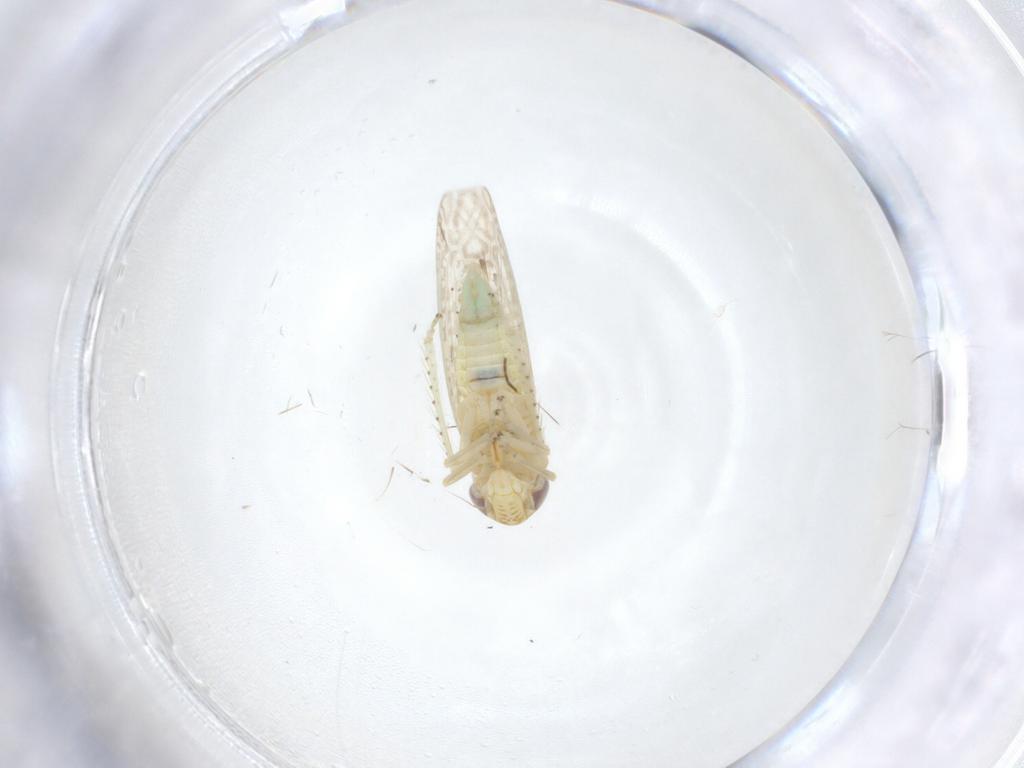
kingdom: Animalia
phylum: Arthropoda
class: Insecta
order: Hemiptera
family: Cicadellidae
